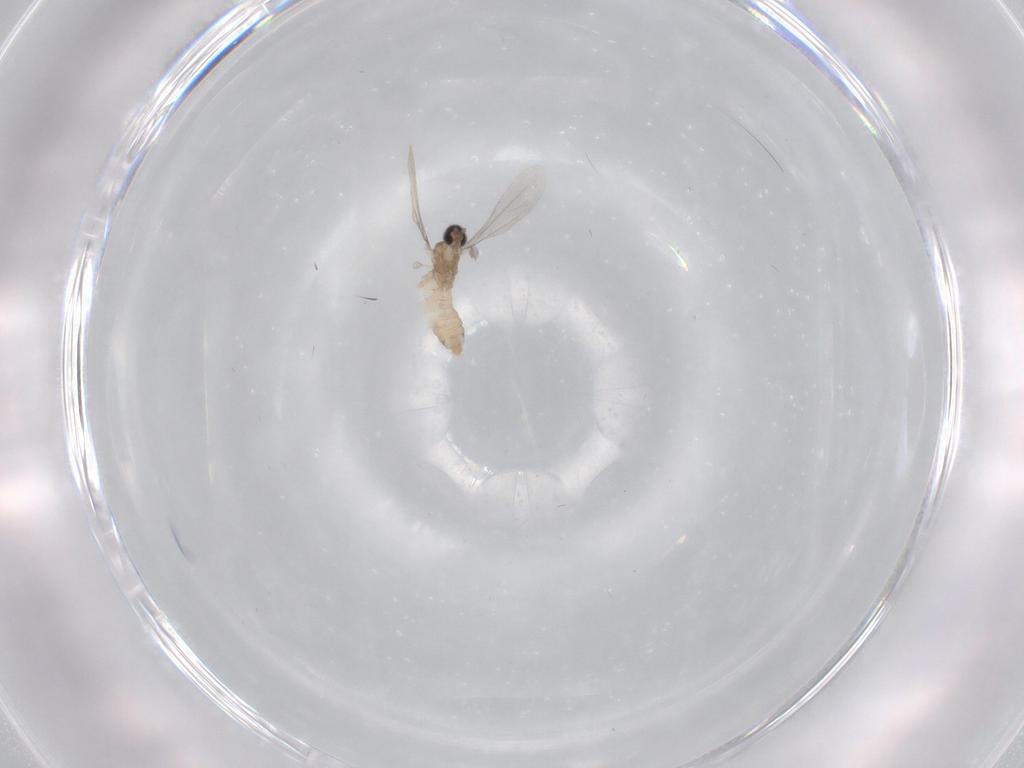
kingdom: Animalia
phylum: Arthropoda
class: Insecta
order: Diptera
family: Cecidomyiidae
